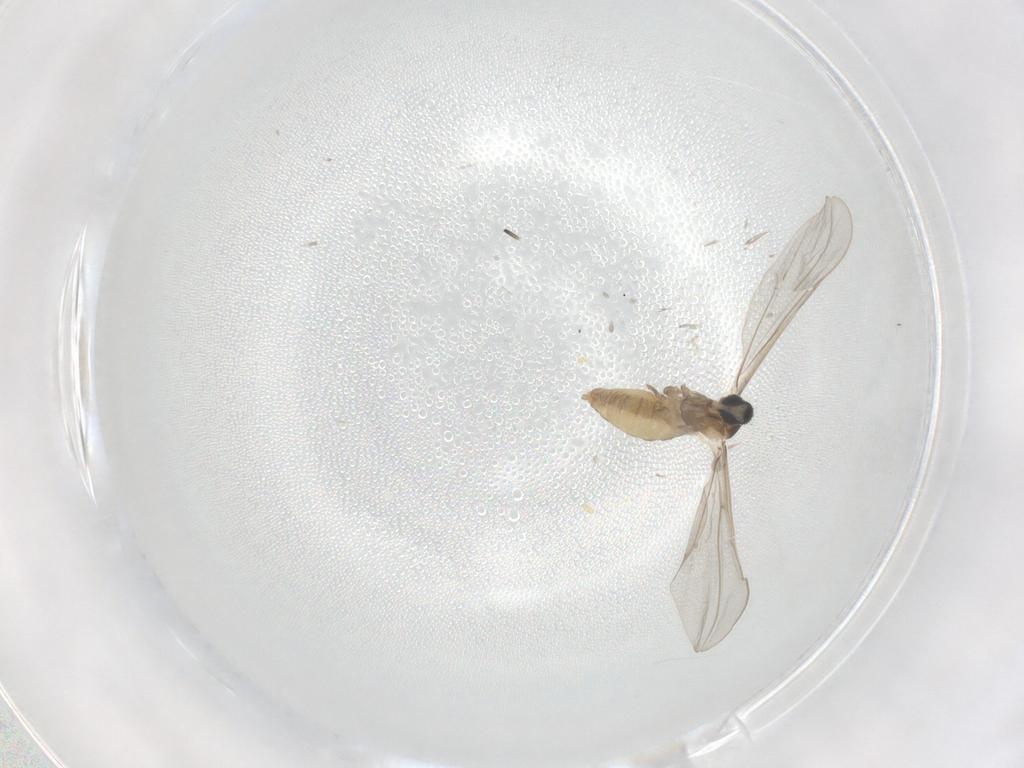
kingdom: Animalia
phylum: Arthropoda
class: Insecta
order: Diptera
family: Cecidomyiidae
